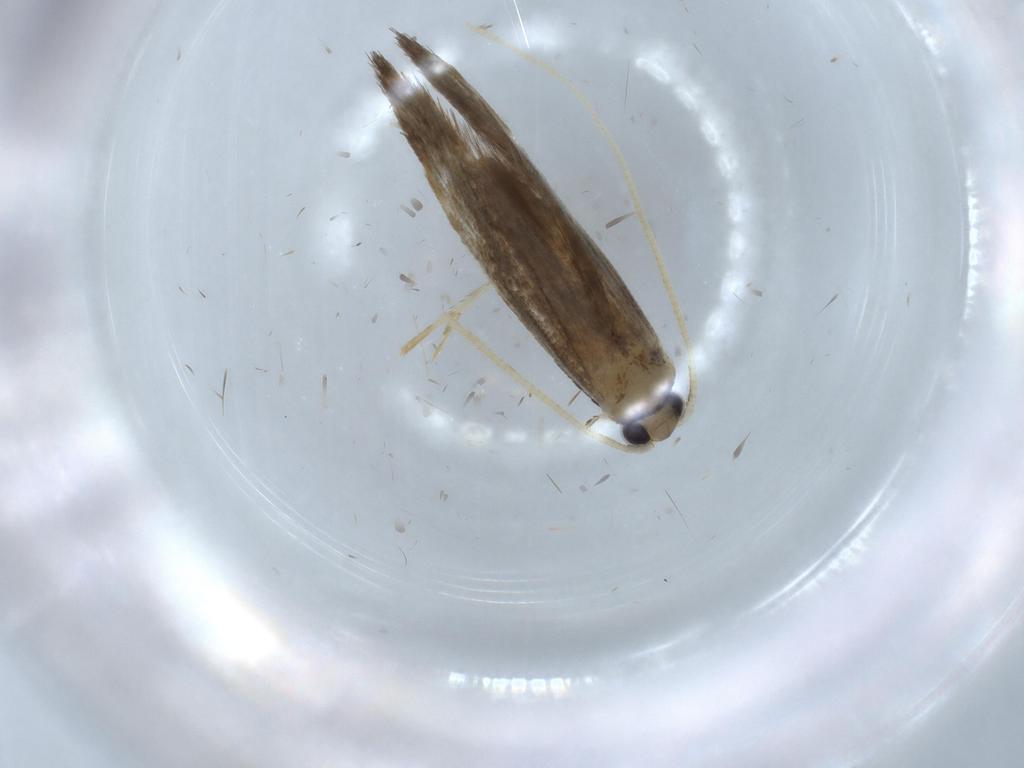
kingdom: Animalia
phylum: Arthropoda
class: Insecta
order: Lepidoptera
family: Tineidae
